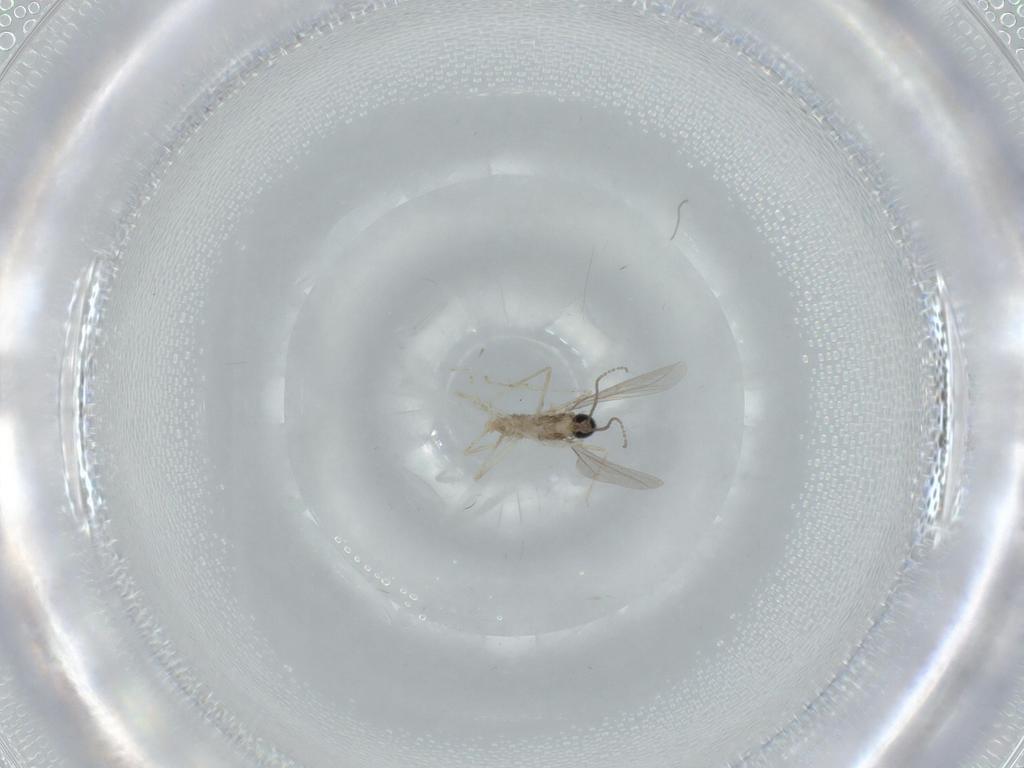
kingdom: Animalia
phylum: Arthropoda
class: Insecta
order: Diptera
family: Cecidomyiidae
